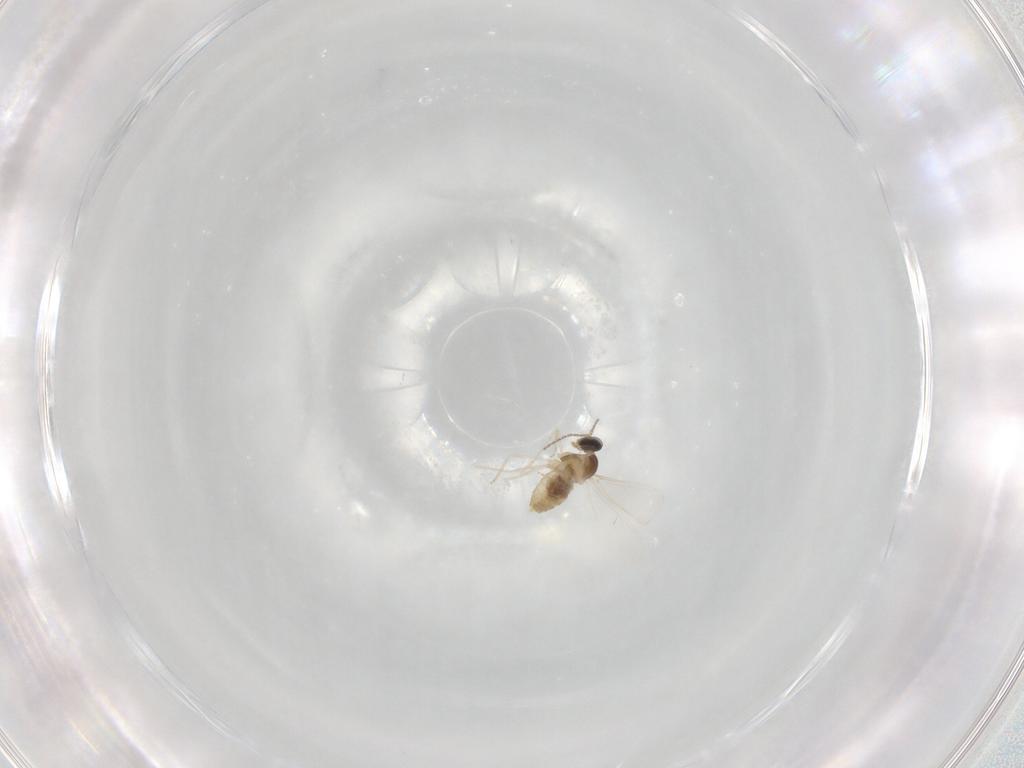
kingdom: Animalia
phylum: Arthropoda
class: Insecta
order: Diptera
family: Cecidomyiidae
